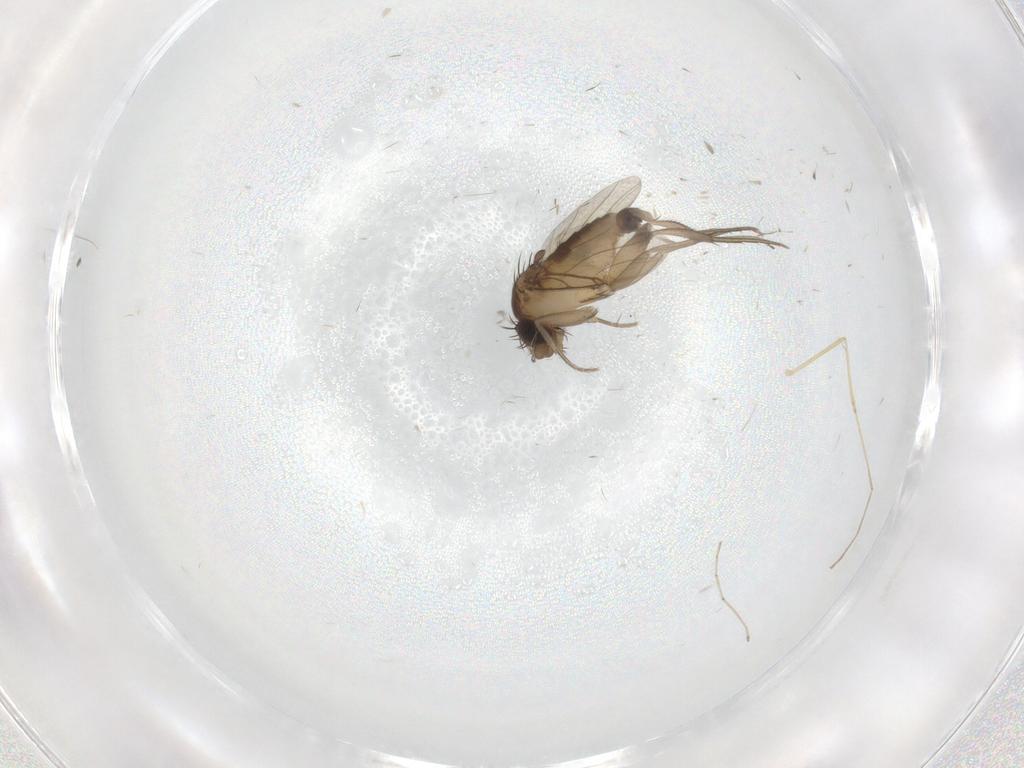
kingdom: Animalia
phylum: Arthropoda
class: Insecta
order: Diptera
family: Phoridae
